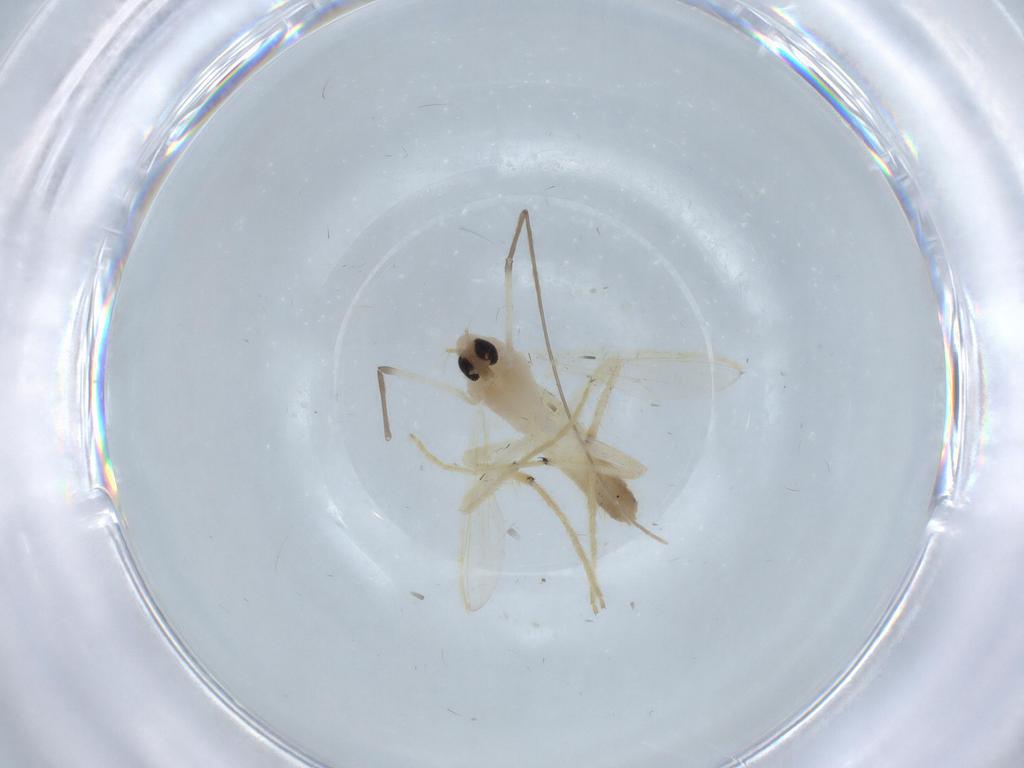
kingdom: Animalia
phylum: Arthropoda
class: Insecta
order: Diptera
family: Chironomidae
